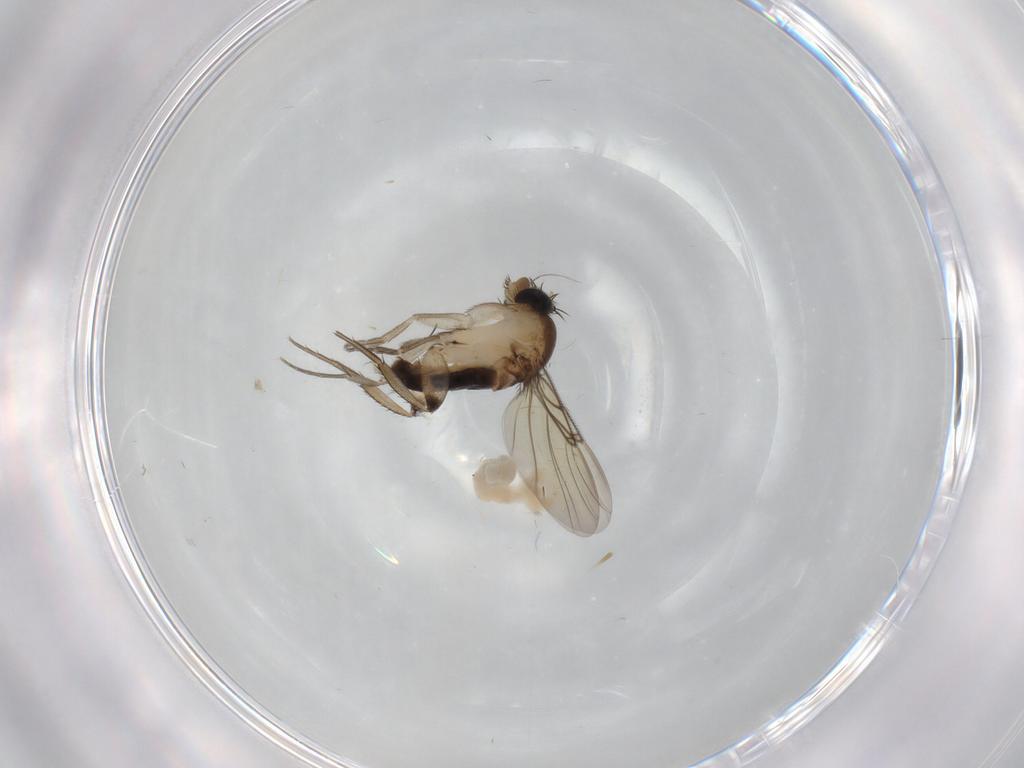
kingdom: Animalia
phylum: Arthropoda
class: Insecta
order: Diptera
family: Phoridae
